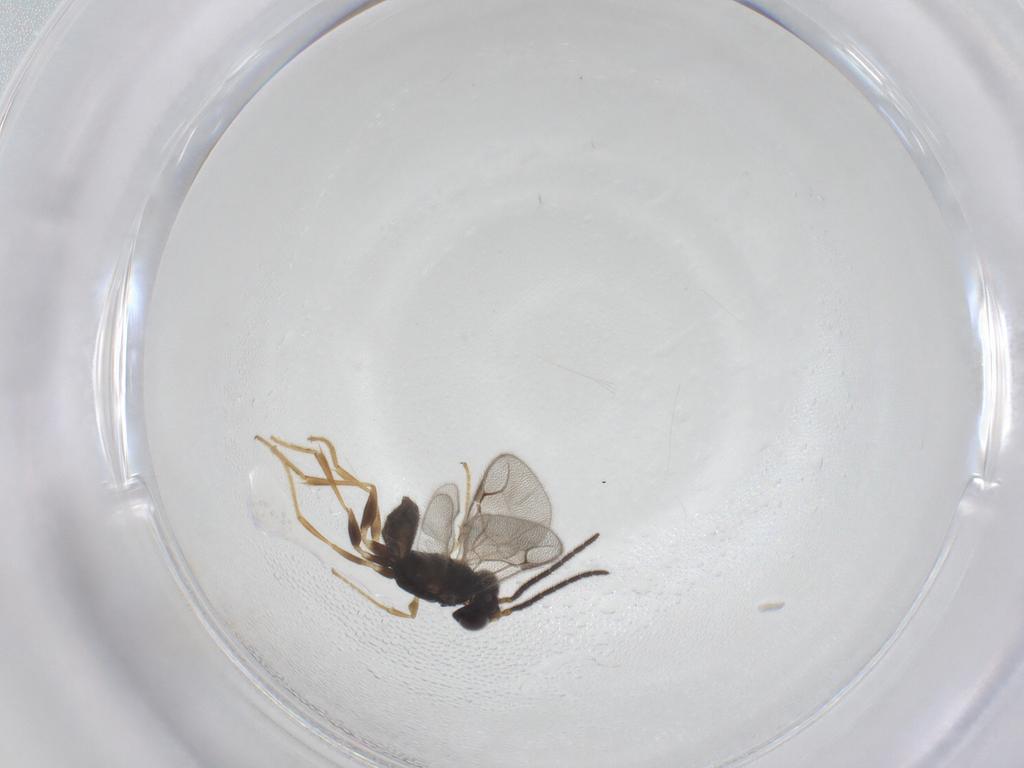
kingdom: Animalia
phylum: Arthropoda
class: Insecta
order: Hymenoptera
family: Dryinidae
